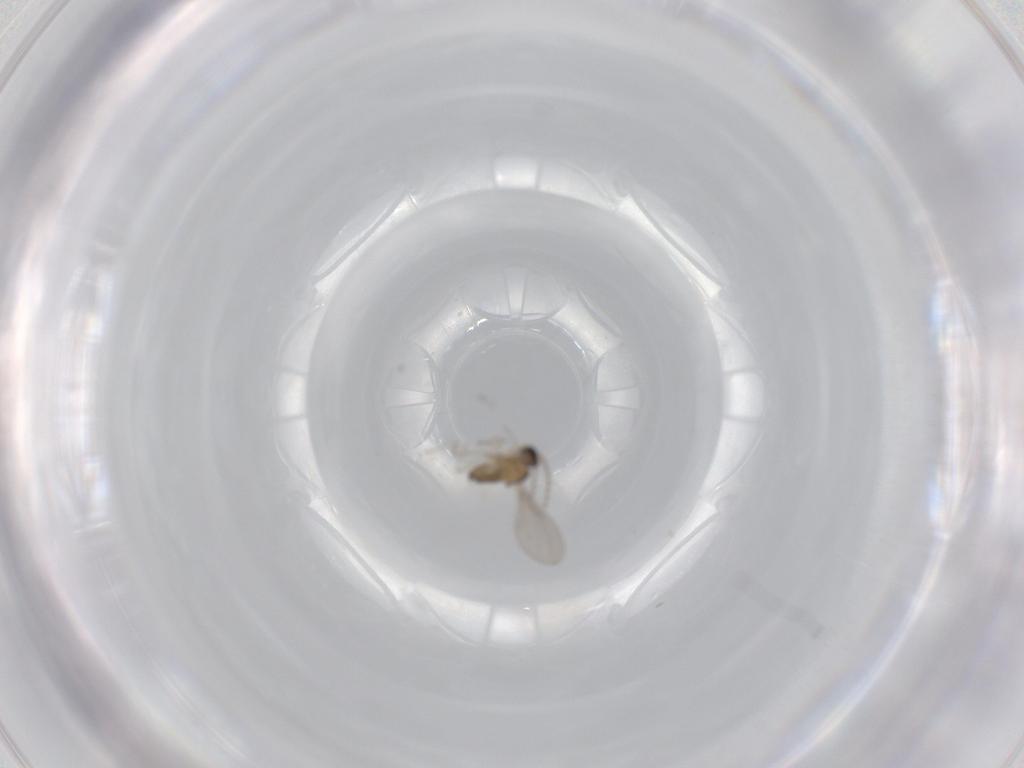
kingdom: Animalia
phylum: Arthropoda
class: Insecta
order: Diptera
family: Cecidomyiidae
